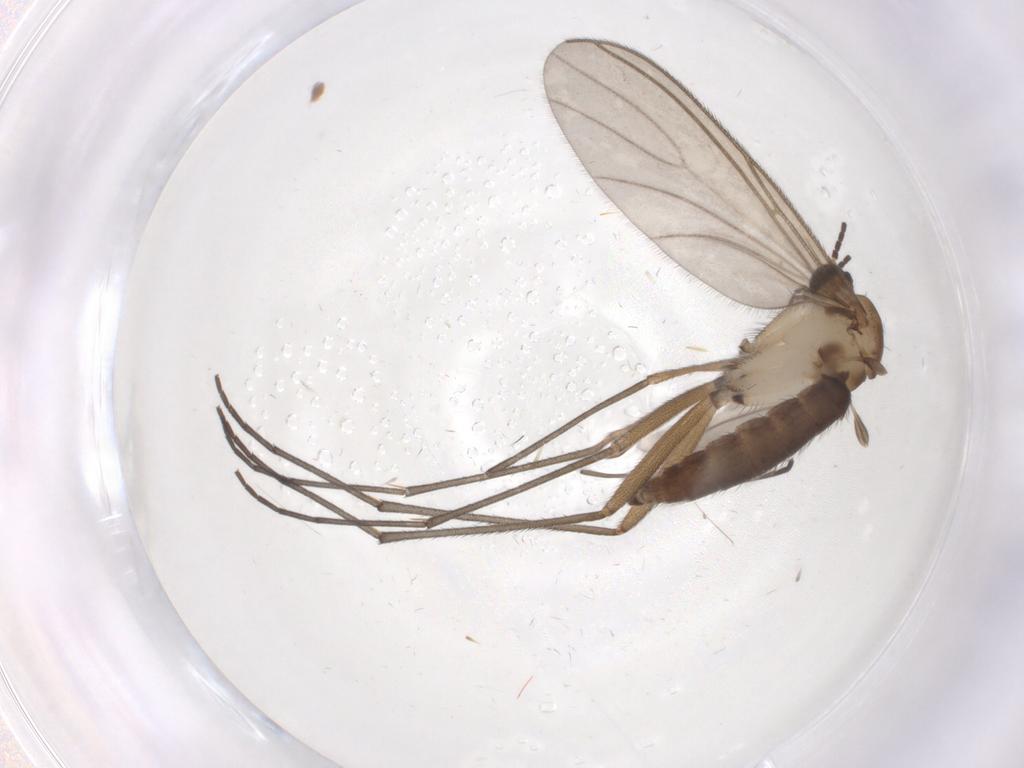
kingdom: Animalia
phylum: Arthropoda
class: Insecta
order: Diptera
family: Sciaridae
